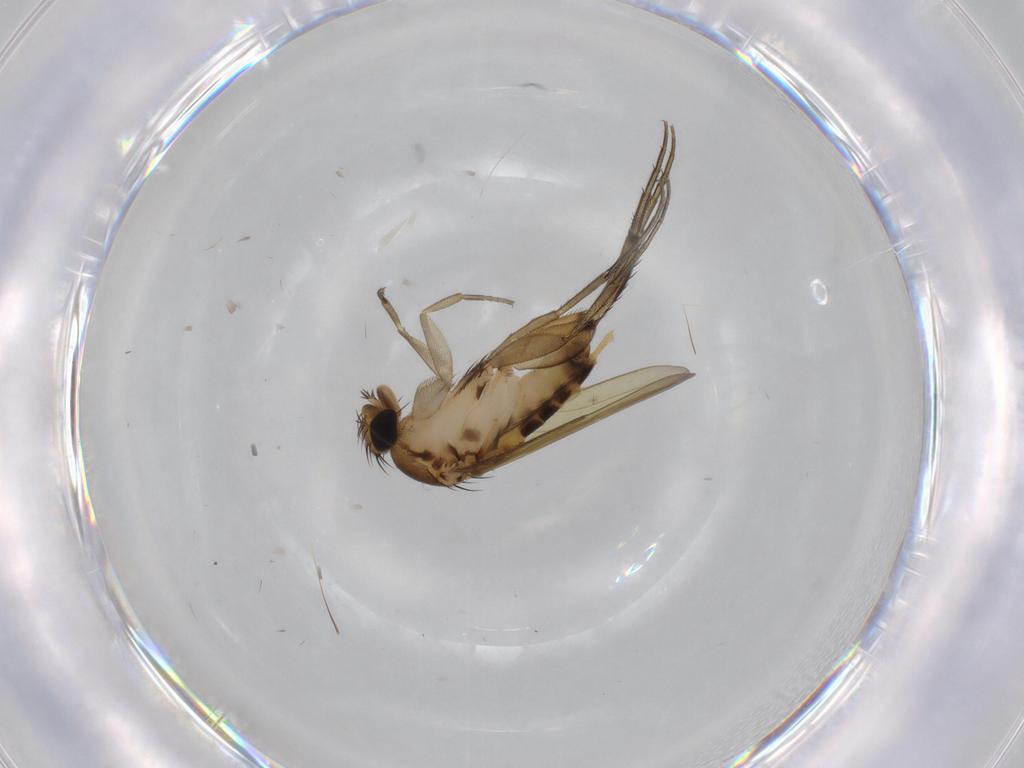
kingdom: Animalia
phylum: Arthropoda
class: Insecta
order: Diptera
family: Phoridae
